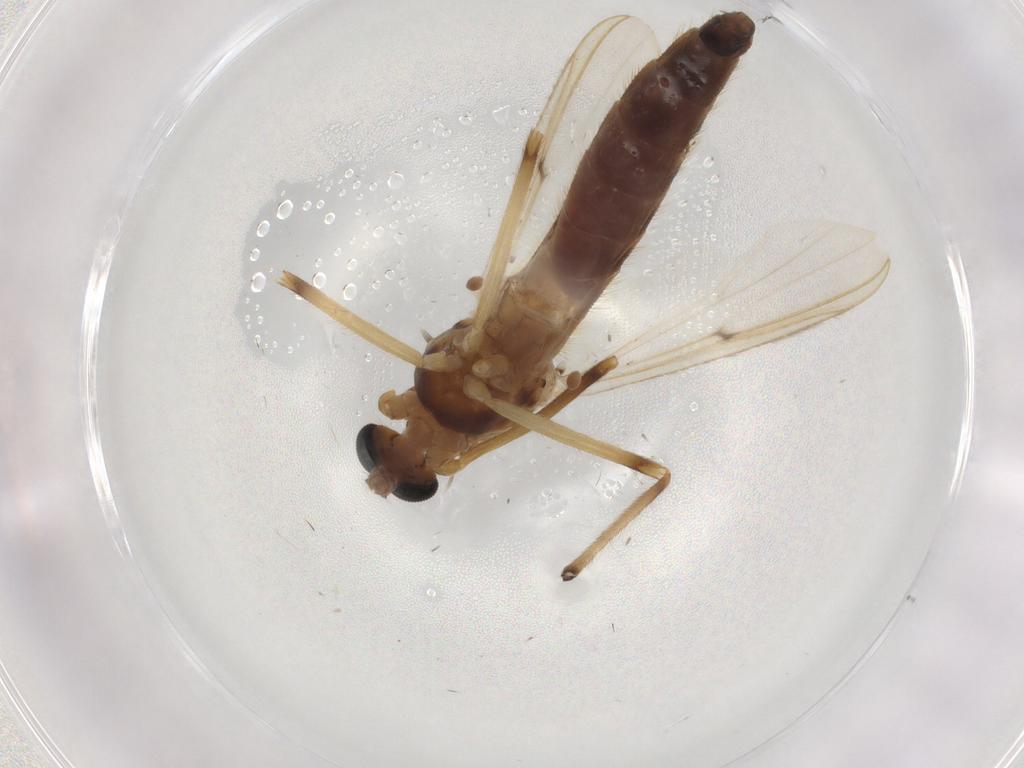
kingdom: Animalia
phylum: Arthropoda
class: Insecta
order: Diptera
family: Chironomidae
